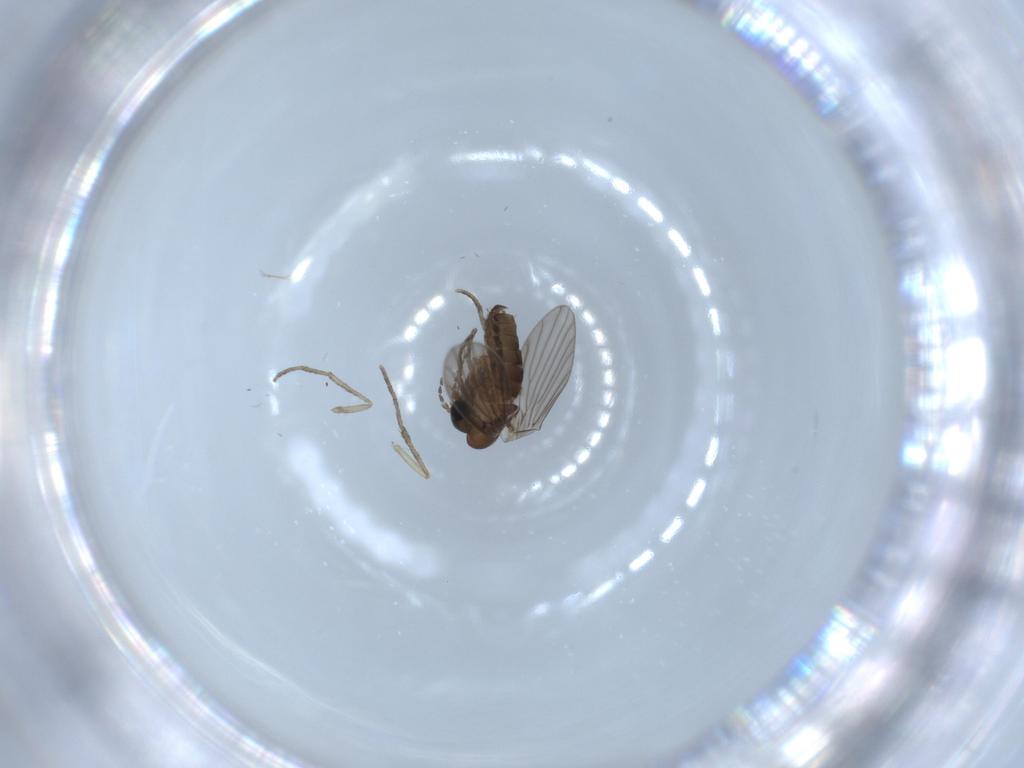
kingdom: Animalia
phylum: Arthropoda
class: Insecta
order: Diptera
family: Psychodidae
